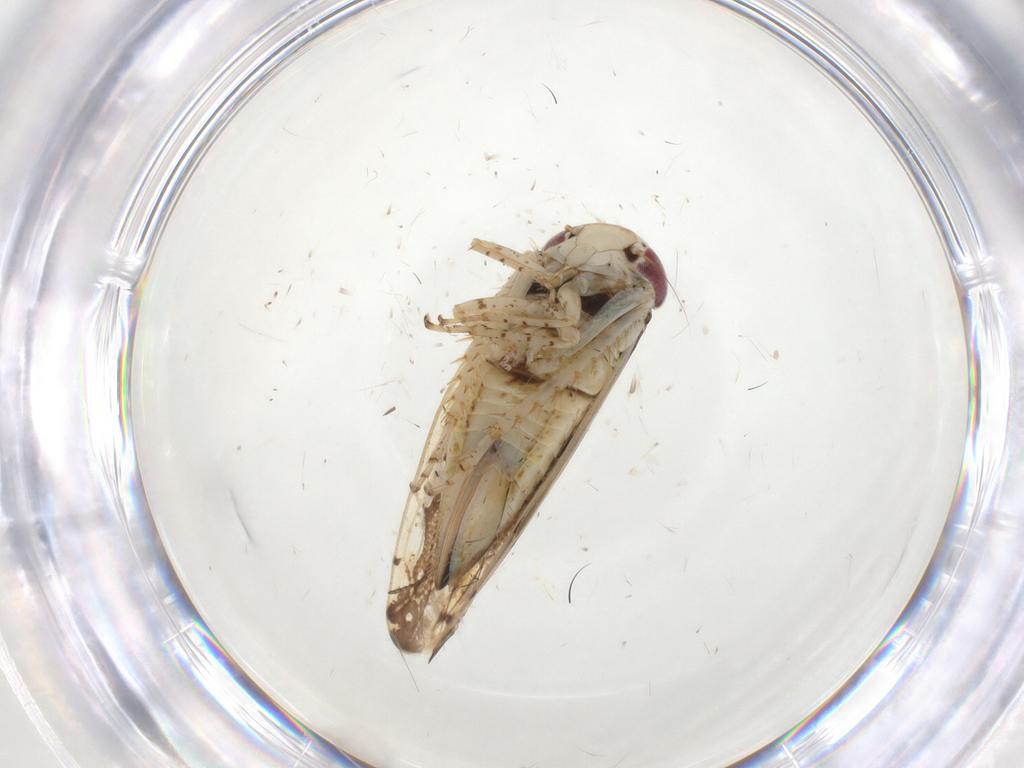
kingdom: Animalia
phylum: Arthropoda
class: Insecta
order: Hemiptera
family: Cicadellidae
